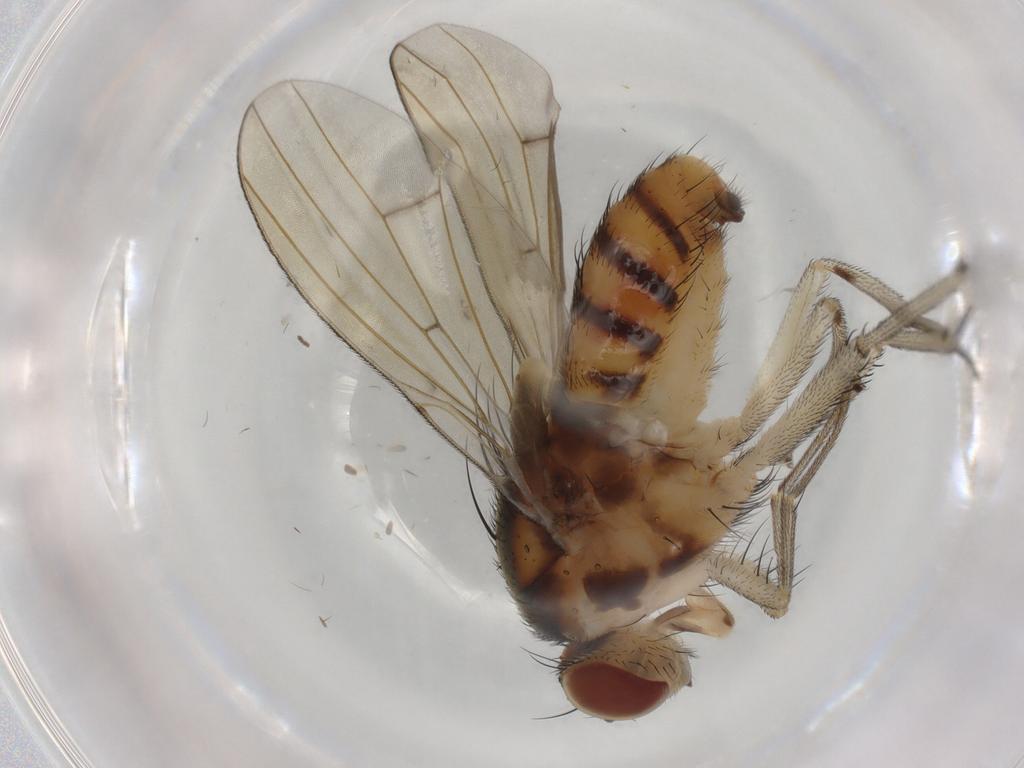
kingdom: Animalia
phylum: Arthropoda
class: Insecta
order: Diptera
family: Sciaridae
